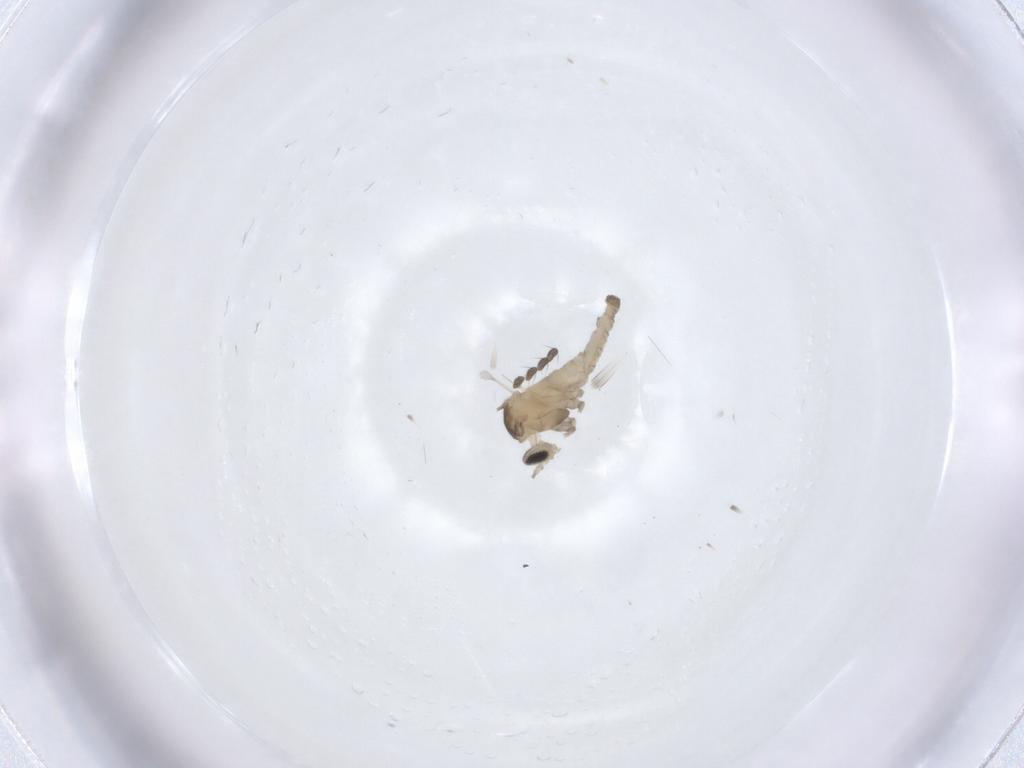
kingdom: Animalia
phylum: Arthropoda
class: Insecta
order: Diptera
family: Cecidomyiidae
